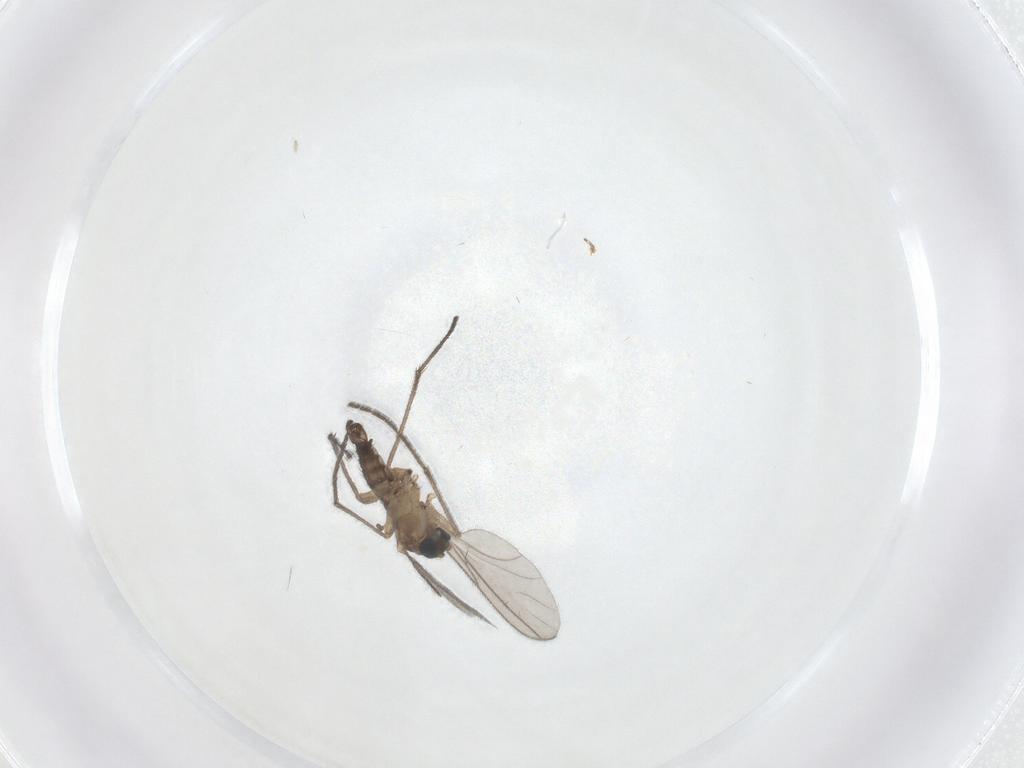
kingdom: Animalia
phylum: Arthropoda
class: Insecta
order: Diptera
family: Sciaridae
